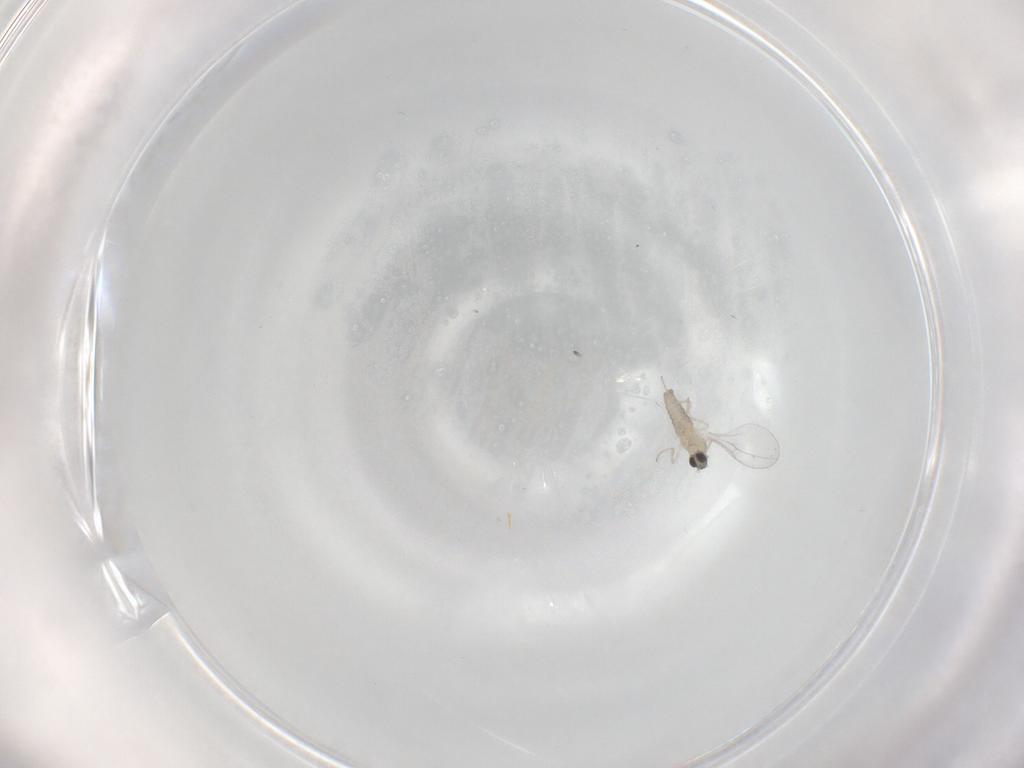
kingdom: Animalia
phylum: Arthropoda
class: Insecta
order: Diptera
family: Cecidomyiidae
